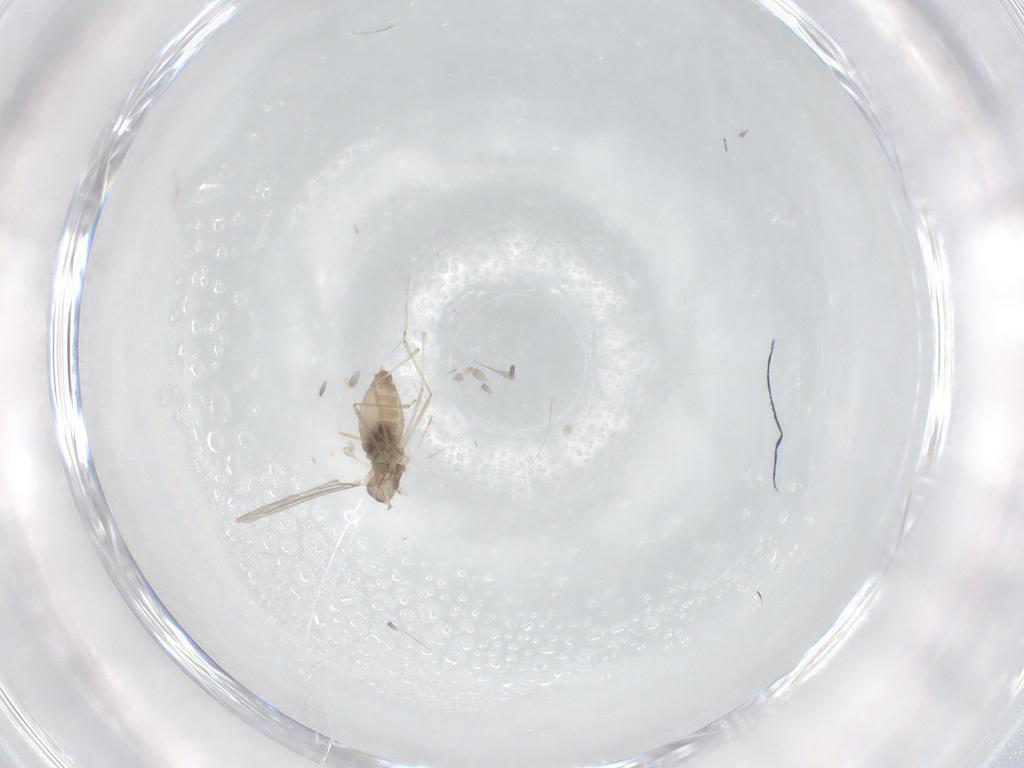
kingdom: Animalia
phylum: Arthropoda
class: Insecta
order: Diptera
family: Cecidomyiidae
